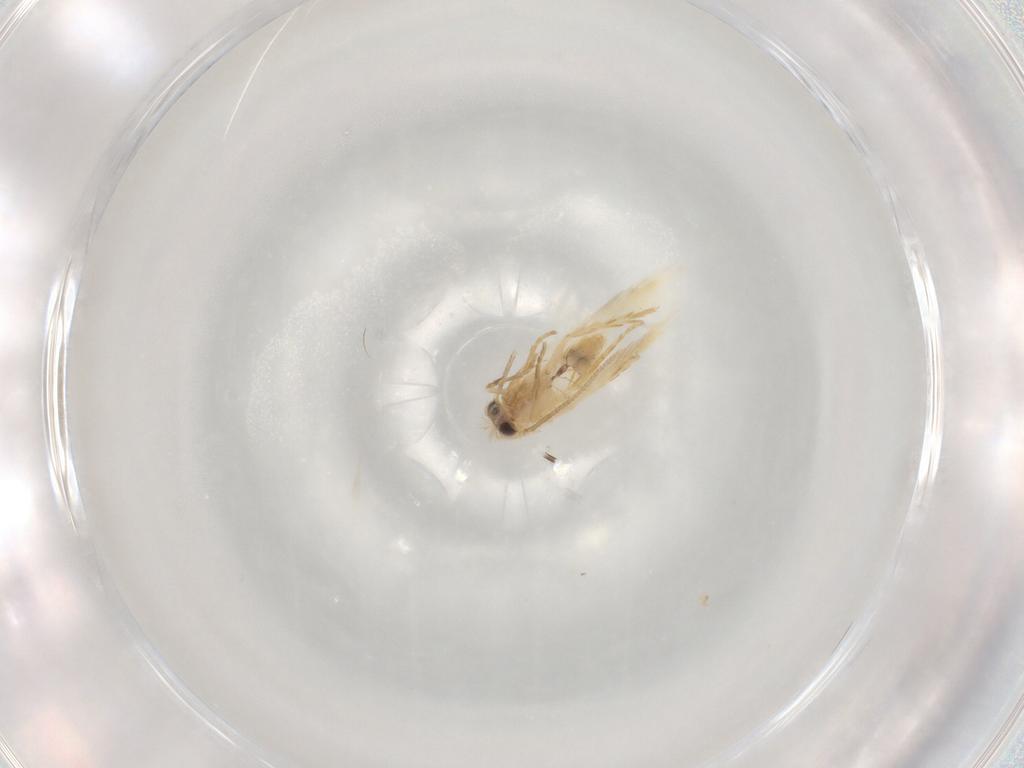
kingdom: Animalia
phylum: Arthropoda
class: Insecta
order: Lepidoptera
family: Nepticulidae
